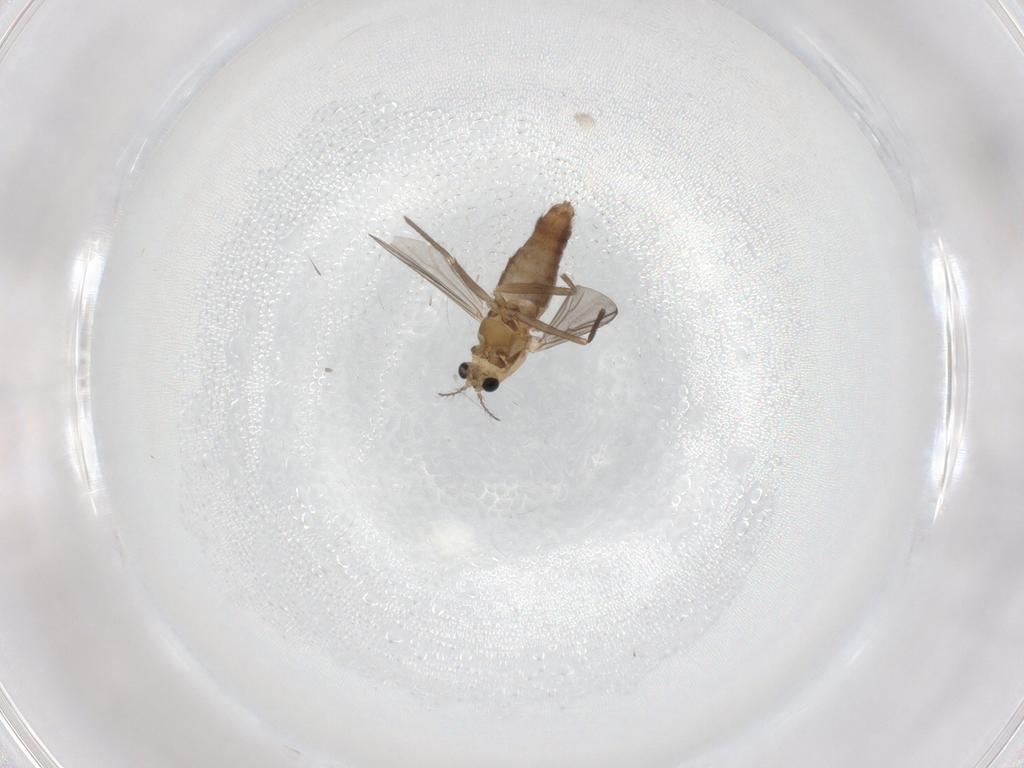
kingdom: Animalia
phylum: Arthropoda
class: Insecta
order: Diptera
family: Chironomidae
